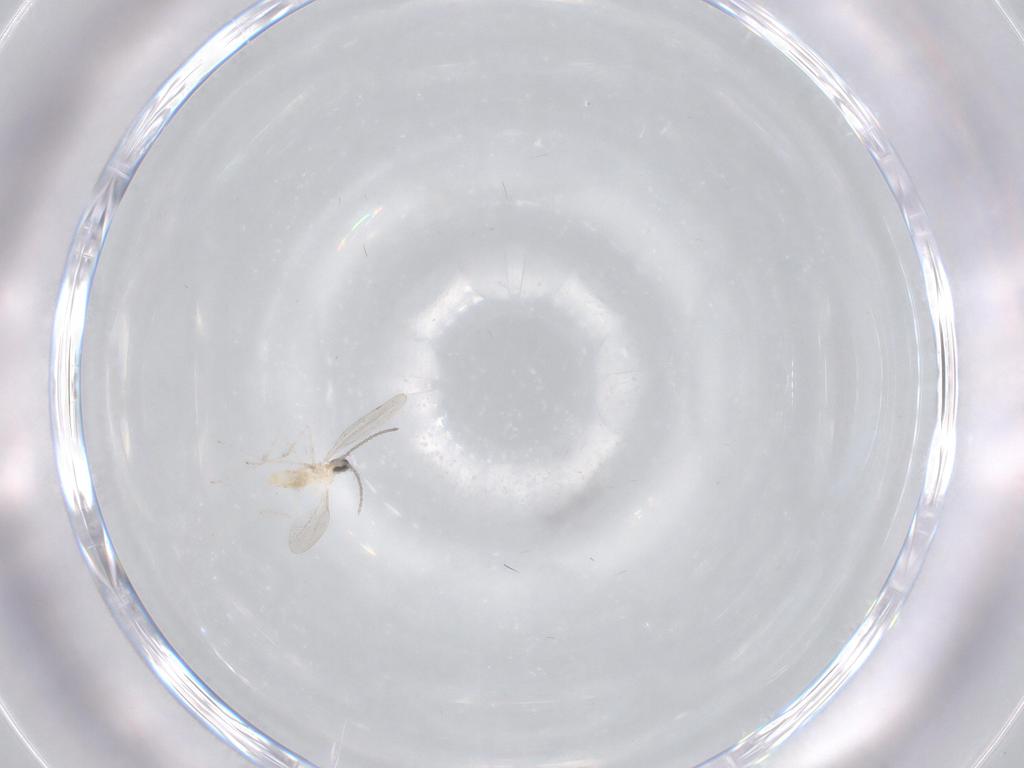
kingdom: Animalia
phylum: Arthropoda
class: Insecta
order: Diptera
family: Cecidomyiidae
